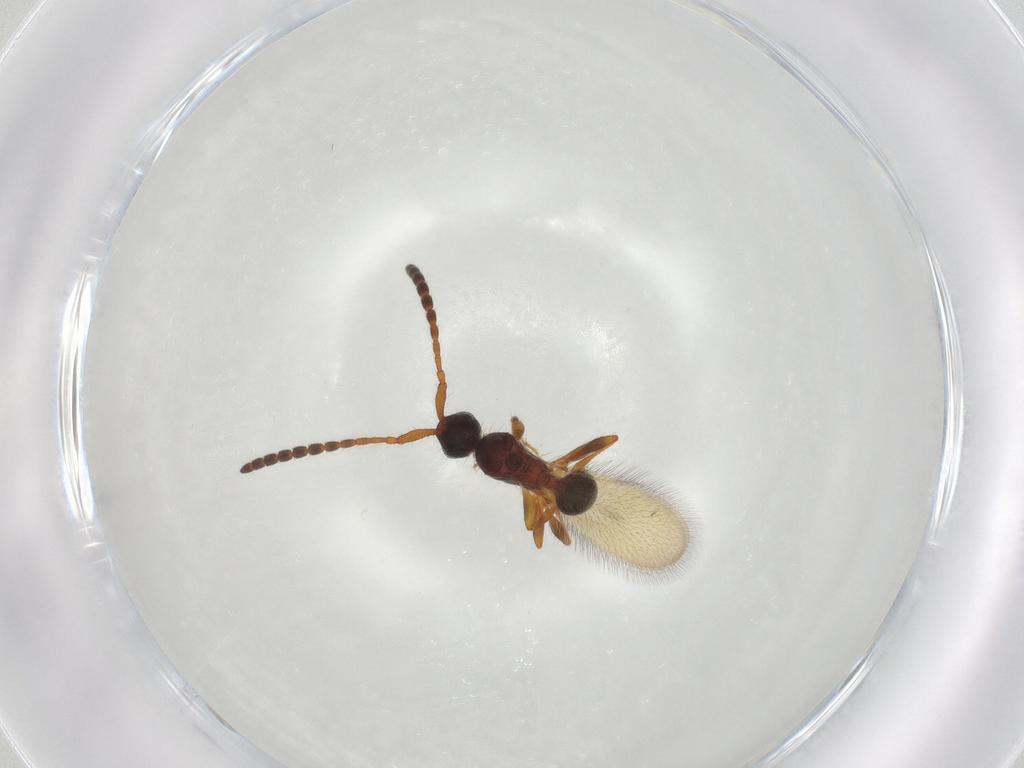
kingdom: Animalia
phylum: Arthropoda
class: Insecta
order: Hymenoptera
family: Diapriidae
